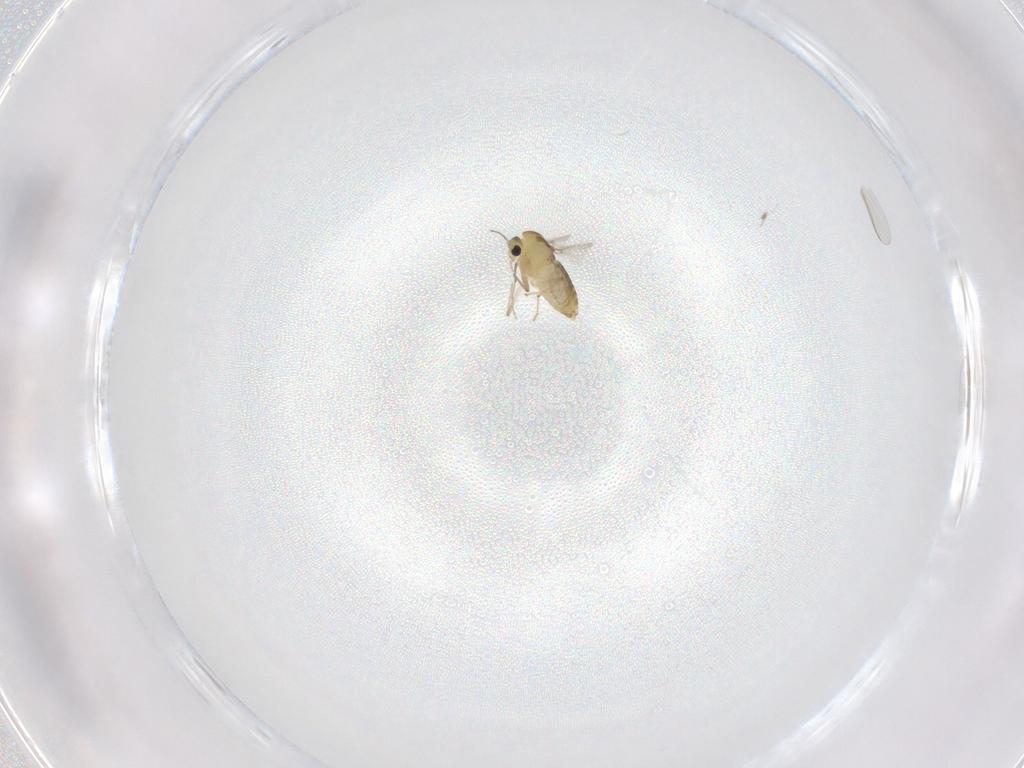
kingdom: Animalia
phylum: Arthropoda
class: Insecta
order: Diptera
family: Chironomidae
